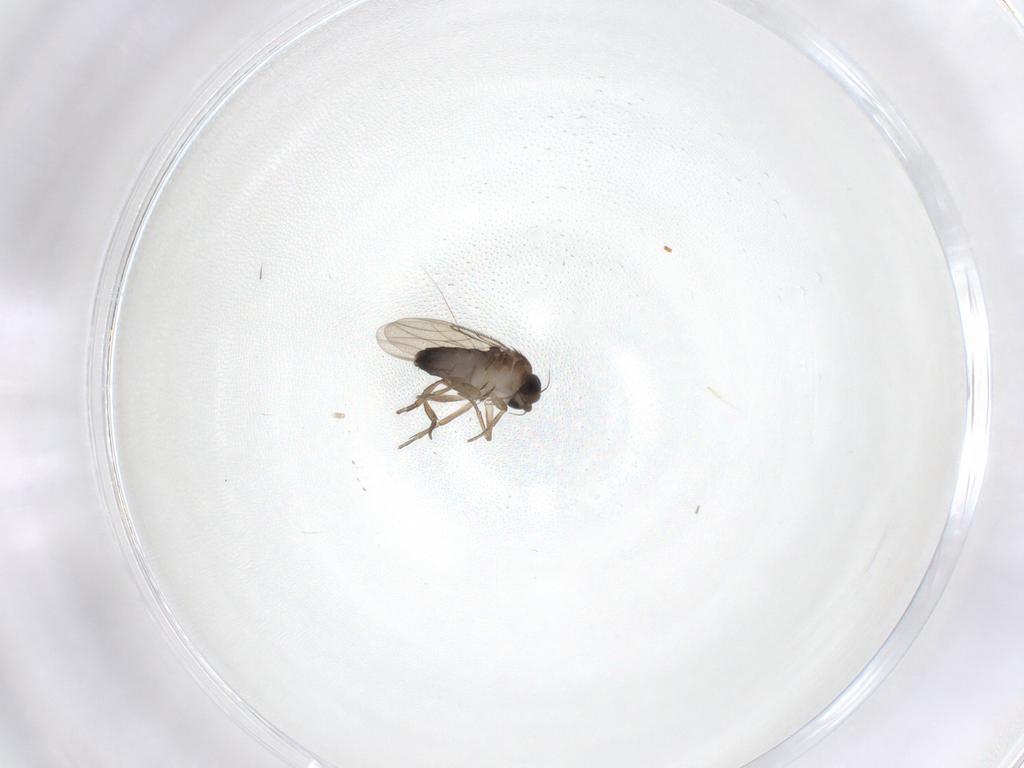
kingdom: Animalia
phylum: Arthropoda
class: Insecta
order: Diptera
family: Phoridae
